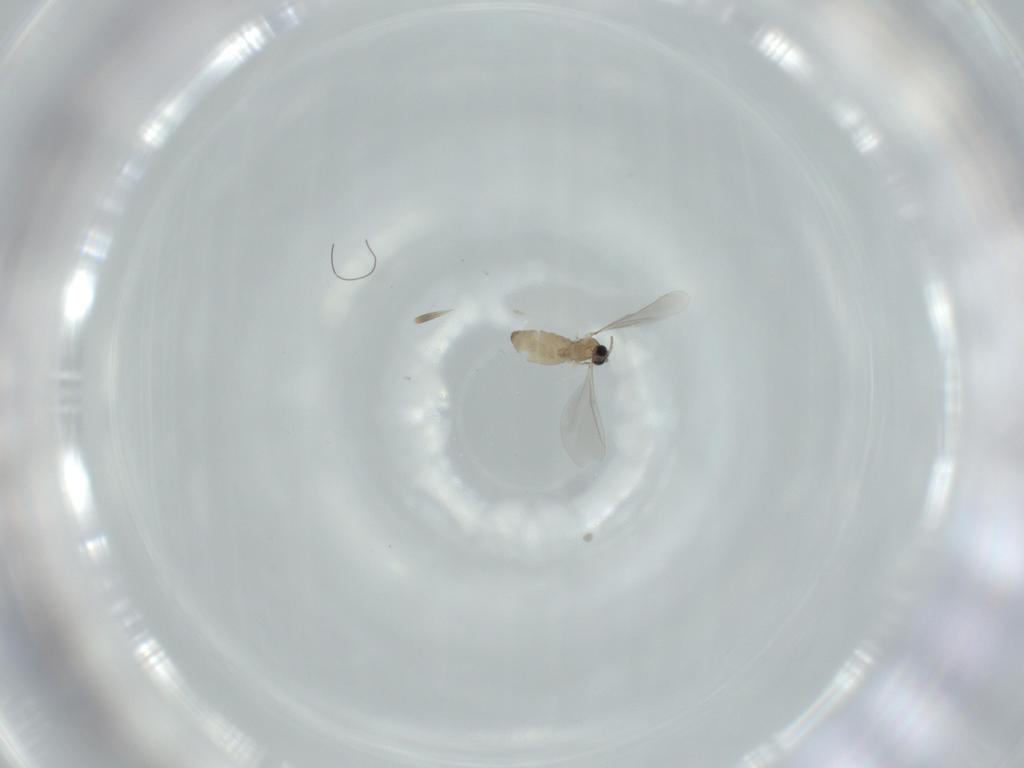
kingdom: Animalia
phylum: Arthropoda
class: Insecta
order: Diptera
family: Cecidomyiidae
